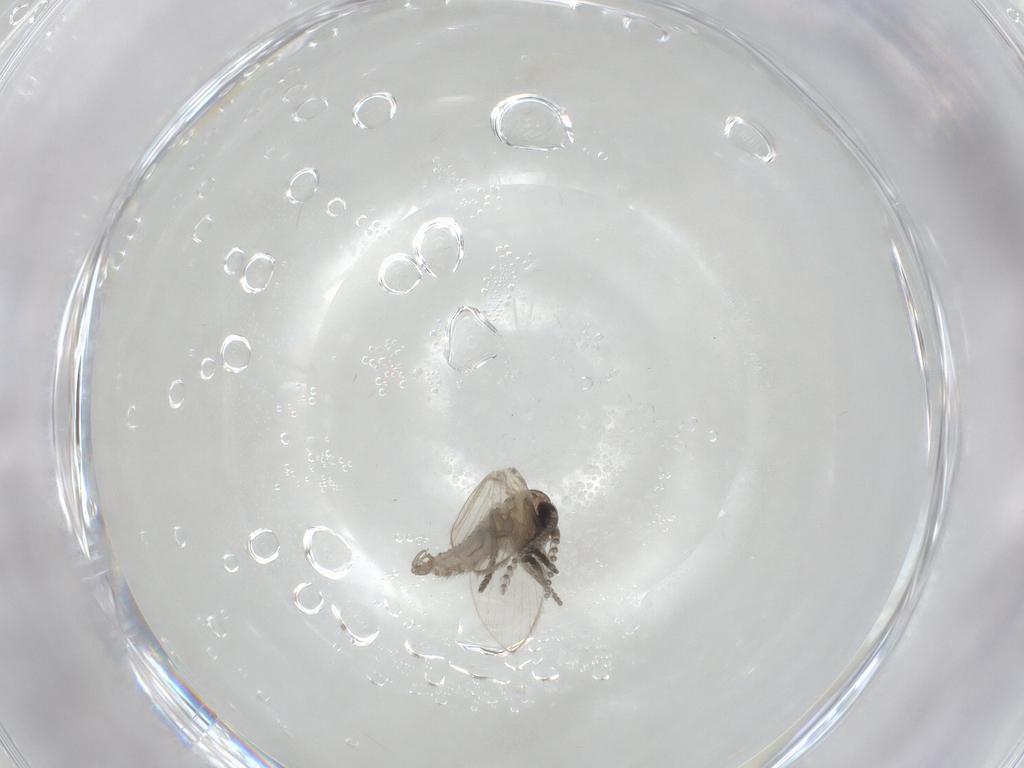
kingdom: Animalia
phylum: Arthropoda
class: Insecta
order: Diptera
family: Psychodidae
